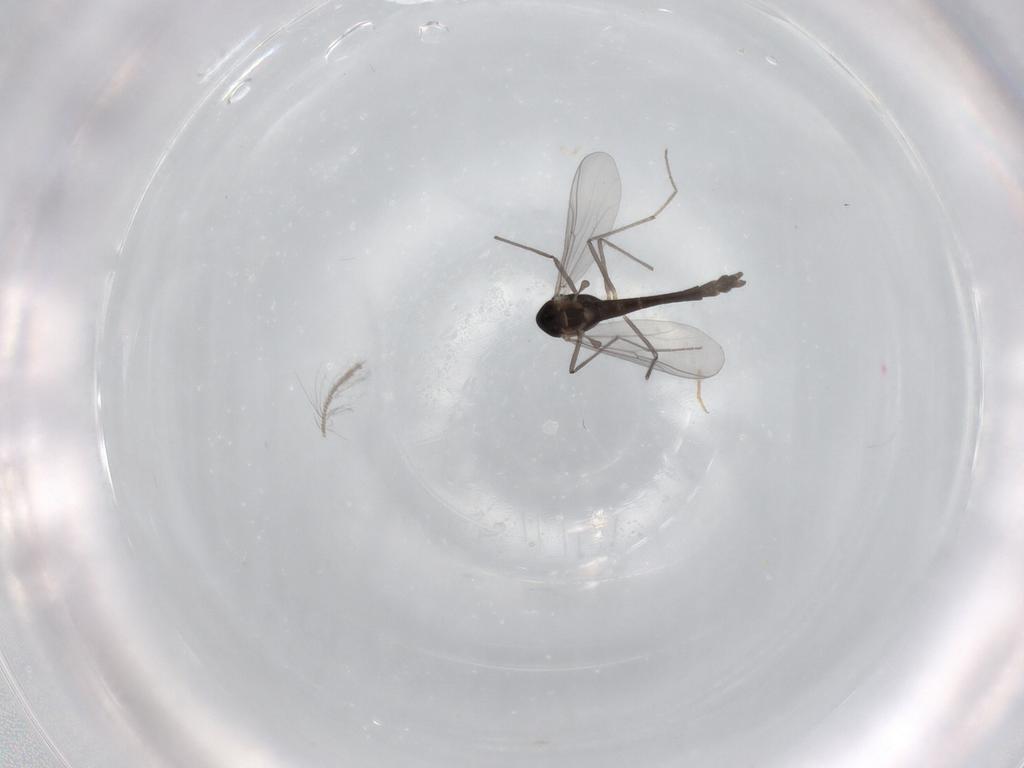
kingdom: Animalia
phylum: Arthropoda
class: Insecta
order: Diptera
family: Chironomidae
